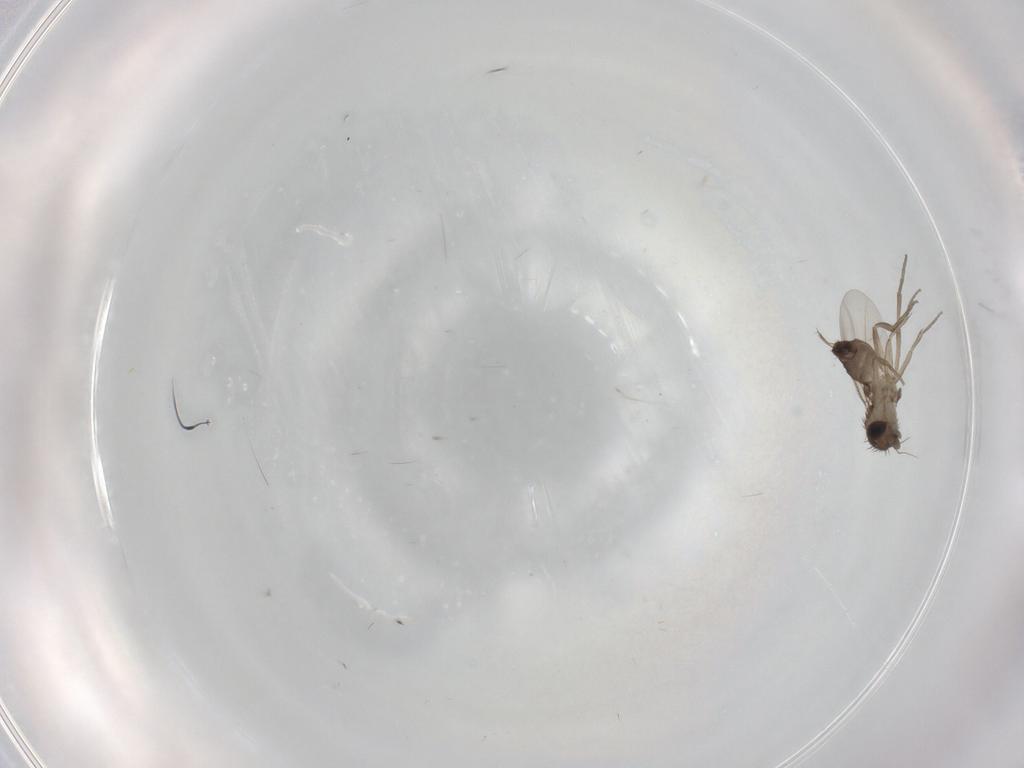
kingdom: Animalia
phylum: Arthropoda
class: Insecta
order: Diptera
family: Phoridae
